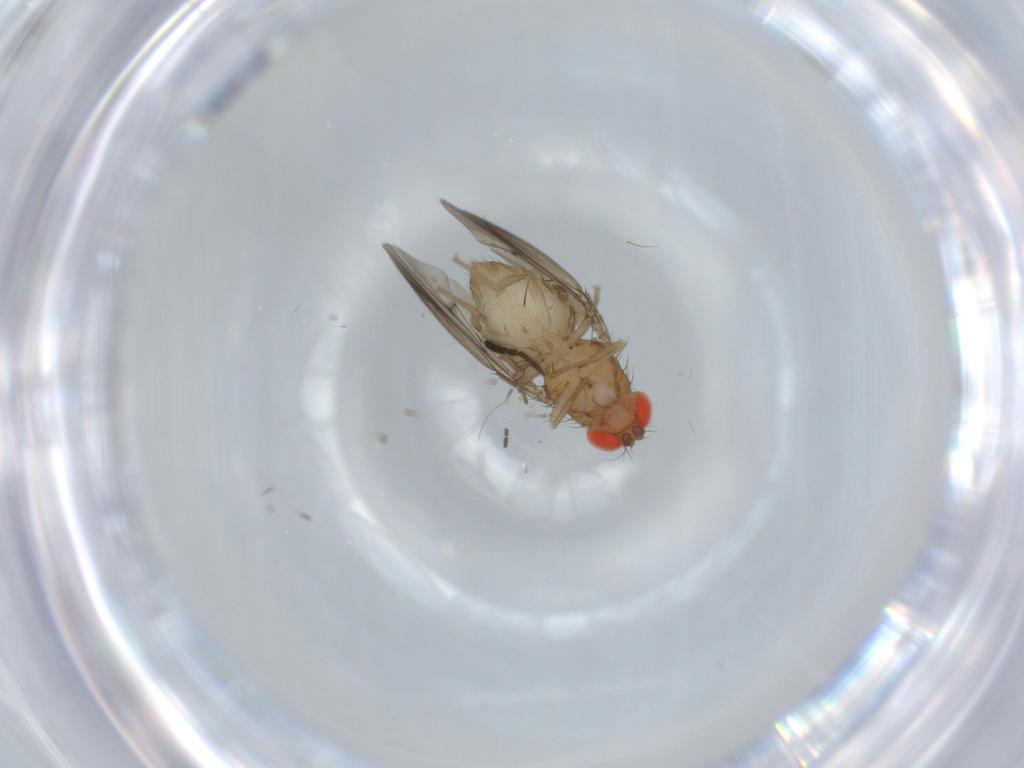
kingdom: Animalia
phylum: Arthropoda
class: Insecta
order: Diptera
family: Drosophilidae
